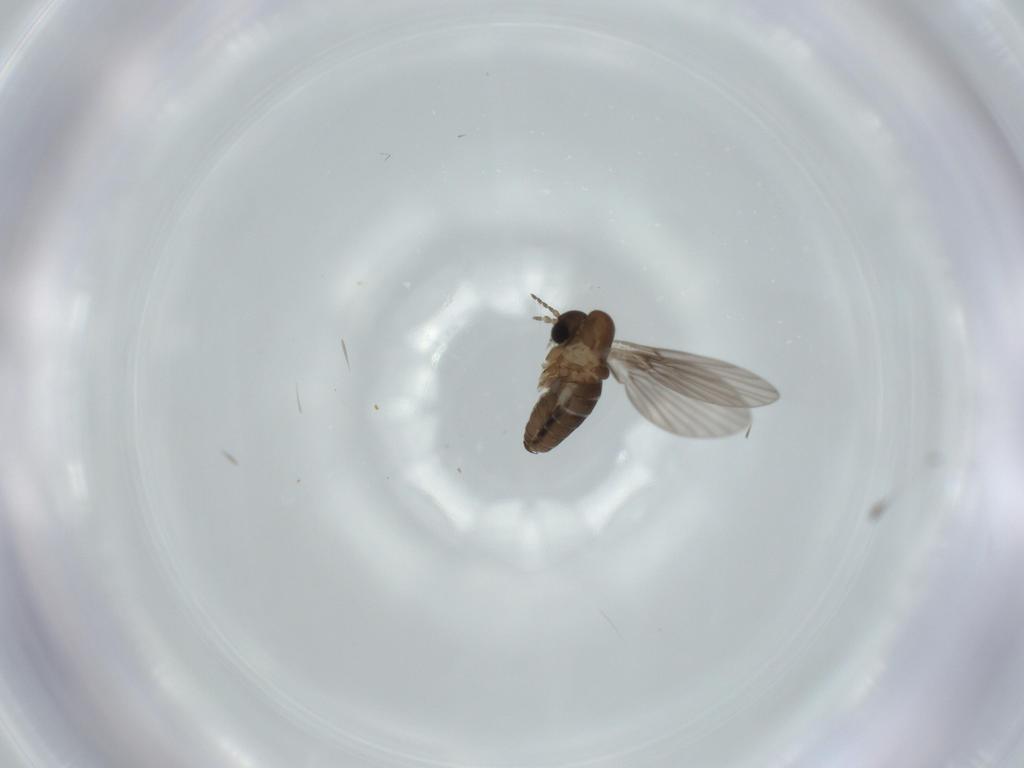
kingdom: Animalia
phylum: Arthropoda
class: Insecta
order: Diptera
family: Psychodidae
